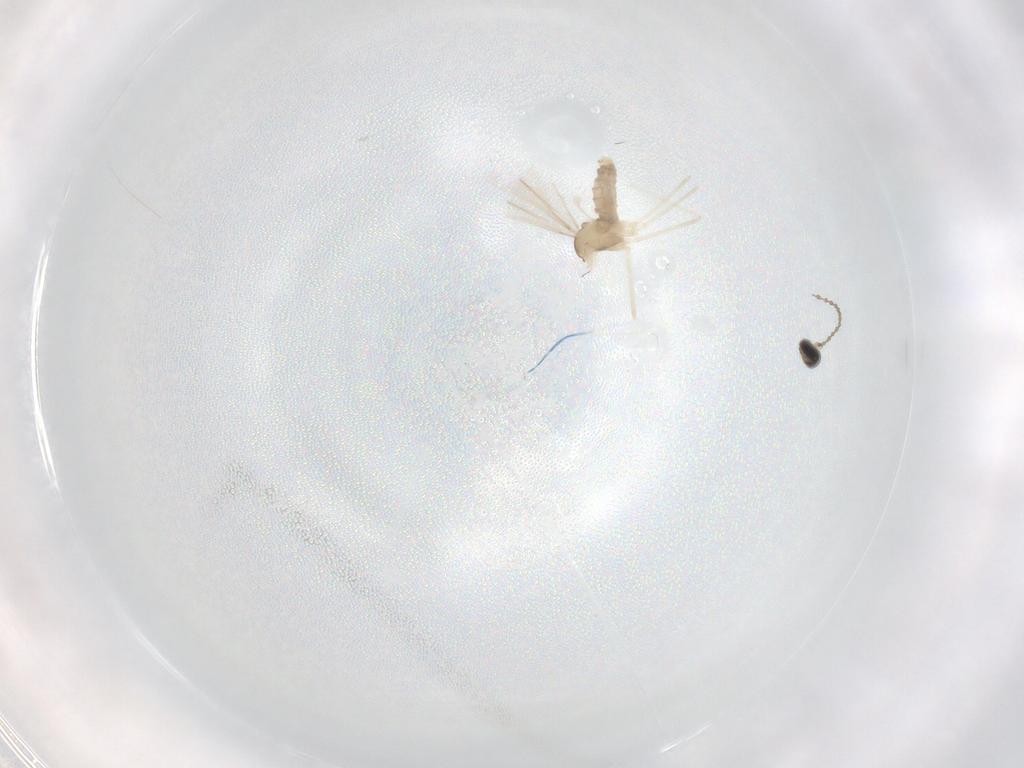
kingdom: Animalia
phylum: Arthropoda
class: Insecta
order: Diptera
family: Cecidomyiidae
